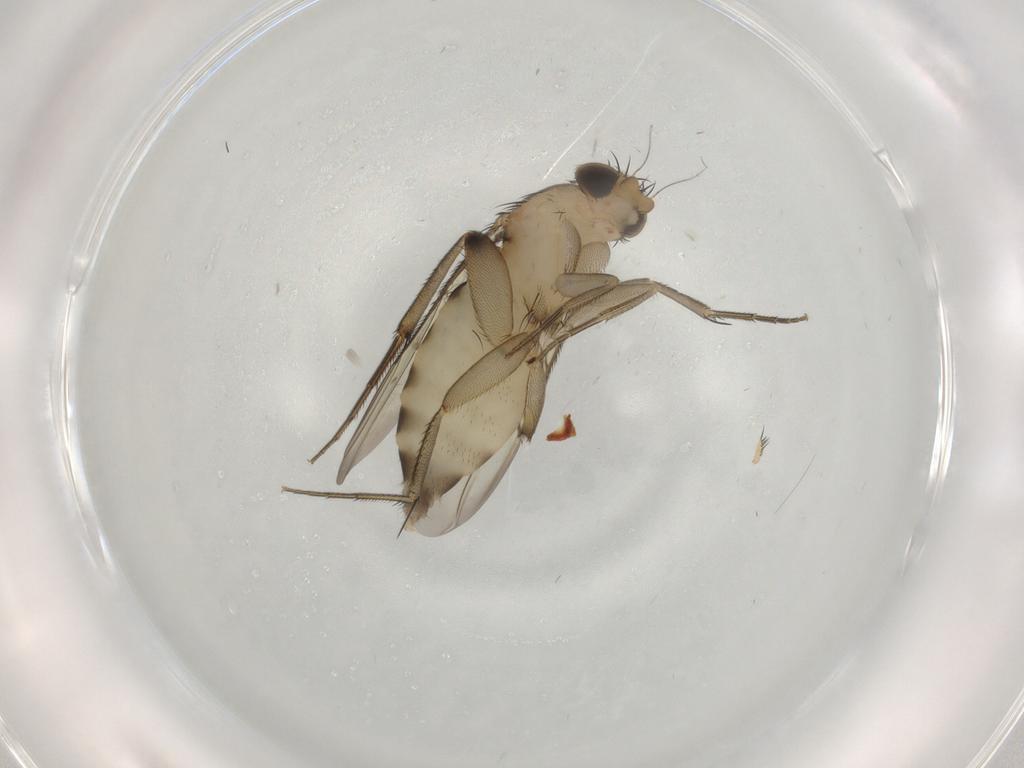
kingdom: Animalia
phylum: Arthropoda
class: Insecta
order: Diptera
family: Phoridae
